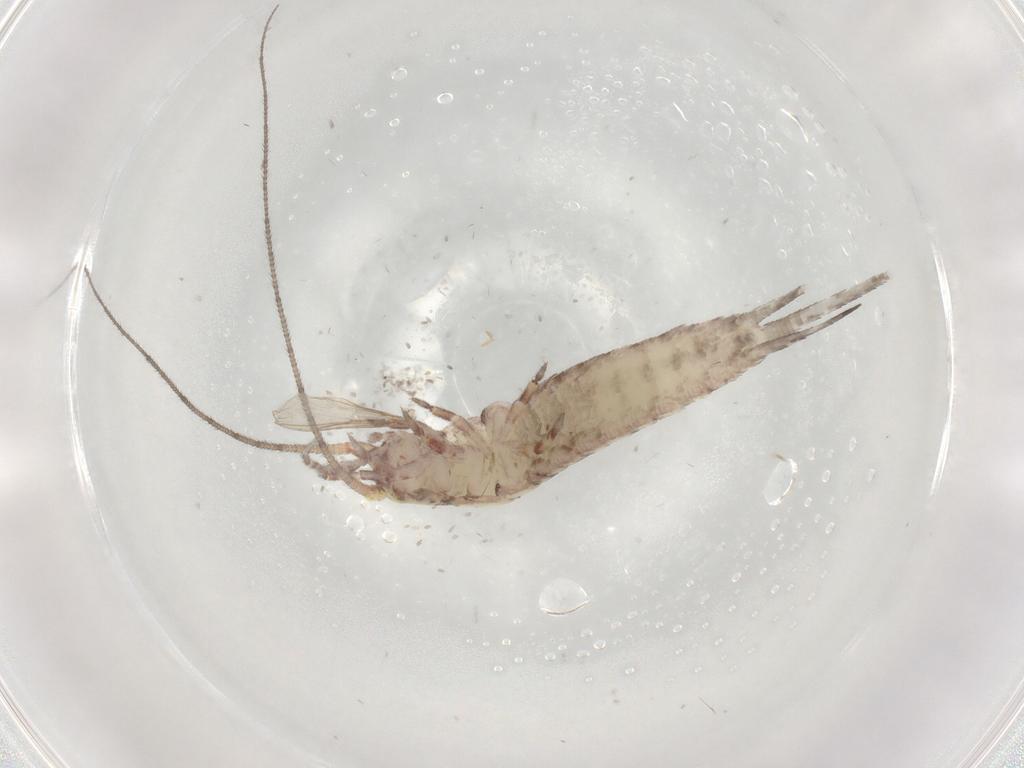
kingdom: Animalia
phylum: Arthropoda
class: Insecta
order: Archaeognatha
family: Machilidae
